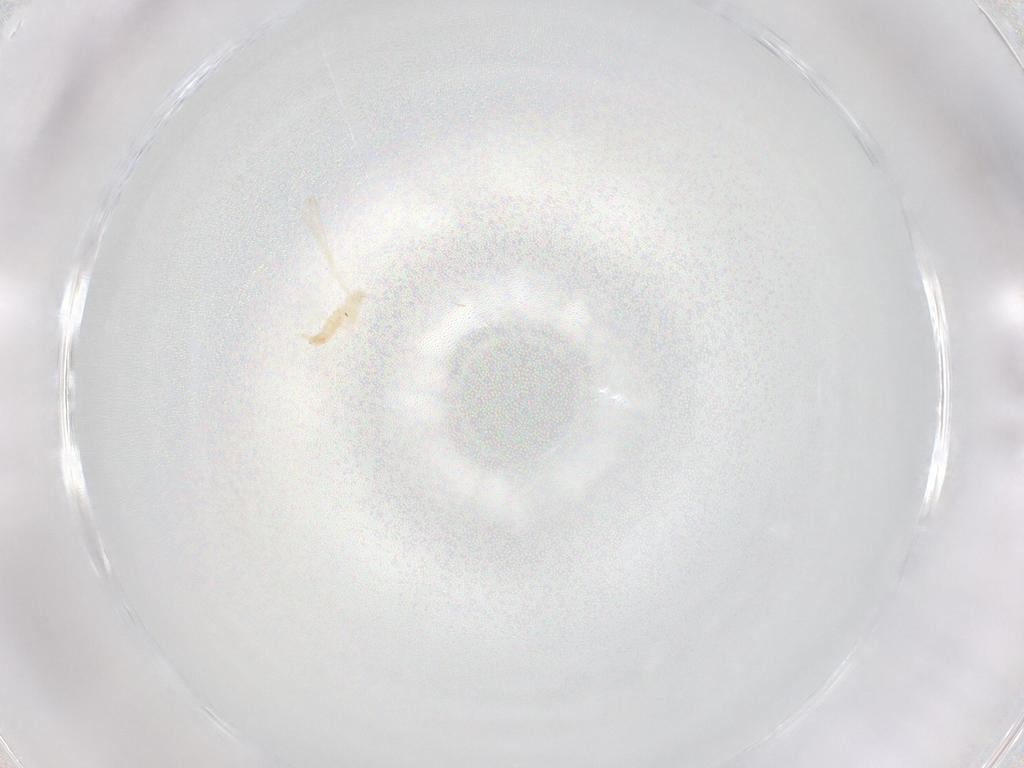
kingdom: Animalia
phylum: Arthropoda
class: Insecta
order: Diptera
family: Cecidomyiidae
